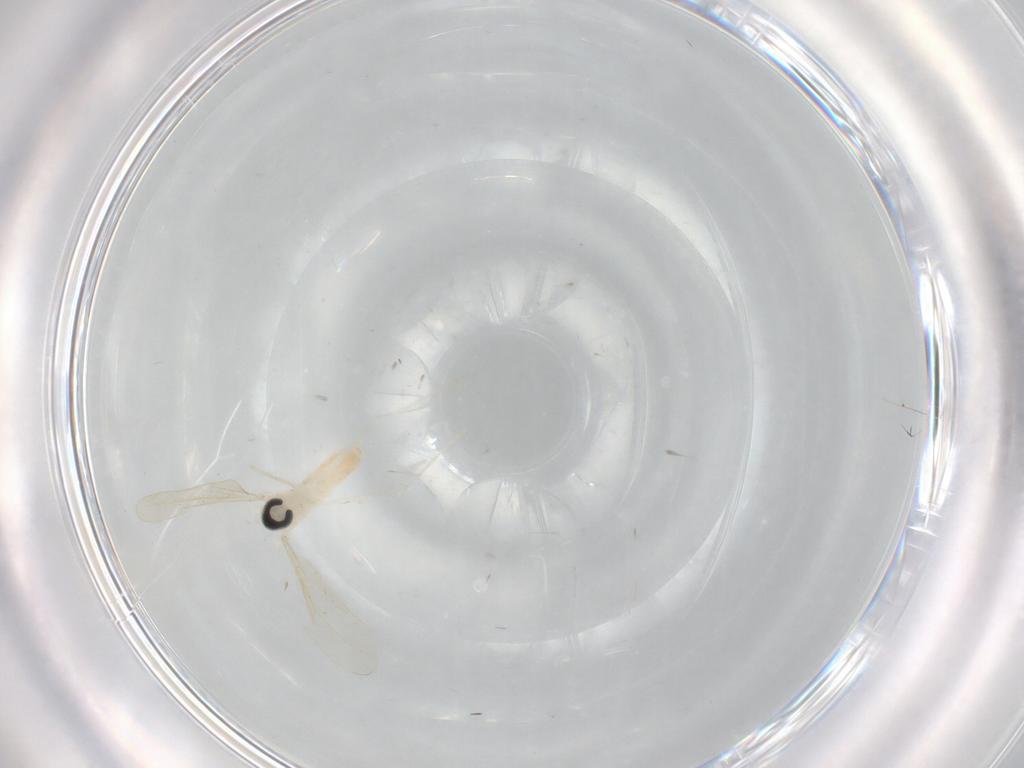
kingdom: Animalia
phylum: Arthropoda
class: Insecta
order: Diptera
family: Cecidomyiidae
